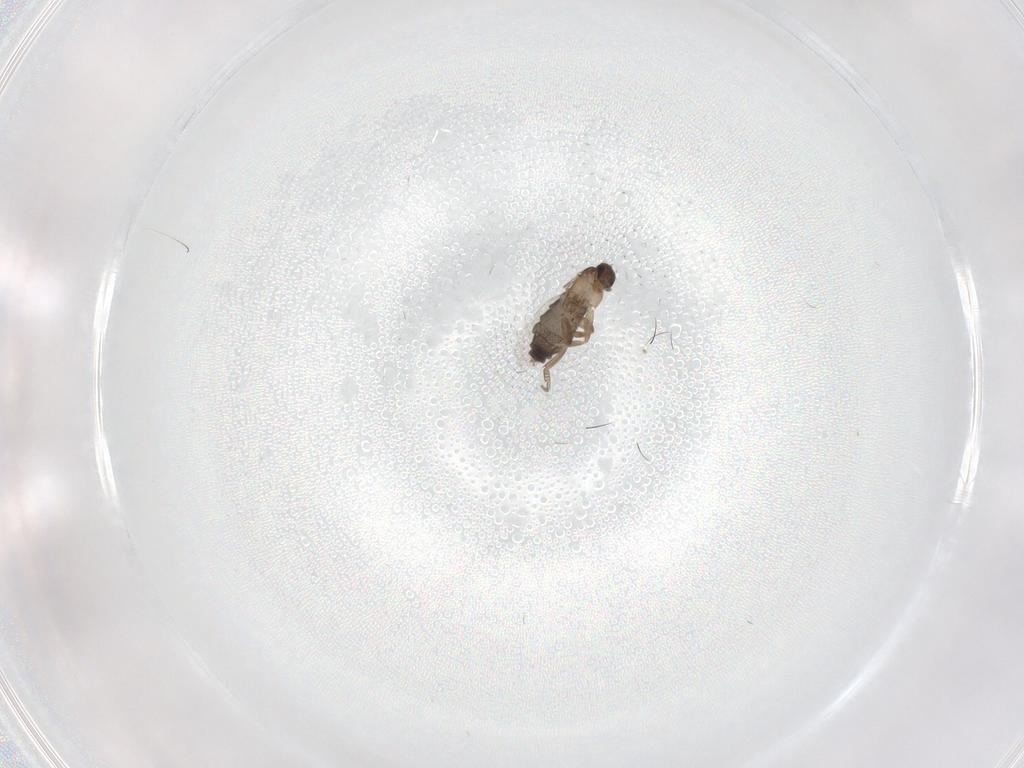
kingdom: Animalia
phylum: Arthropoda
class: Insecta
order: Diptera
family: Phoridae
